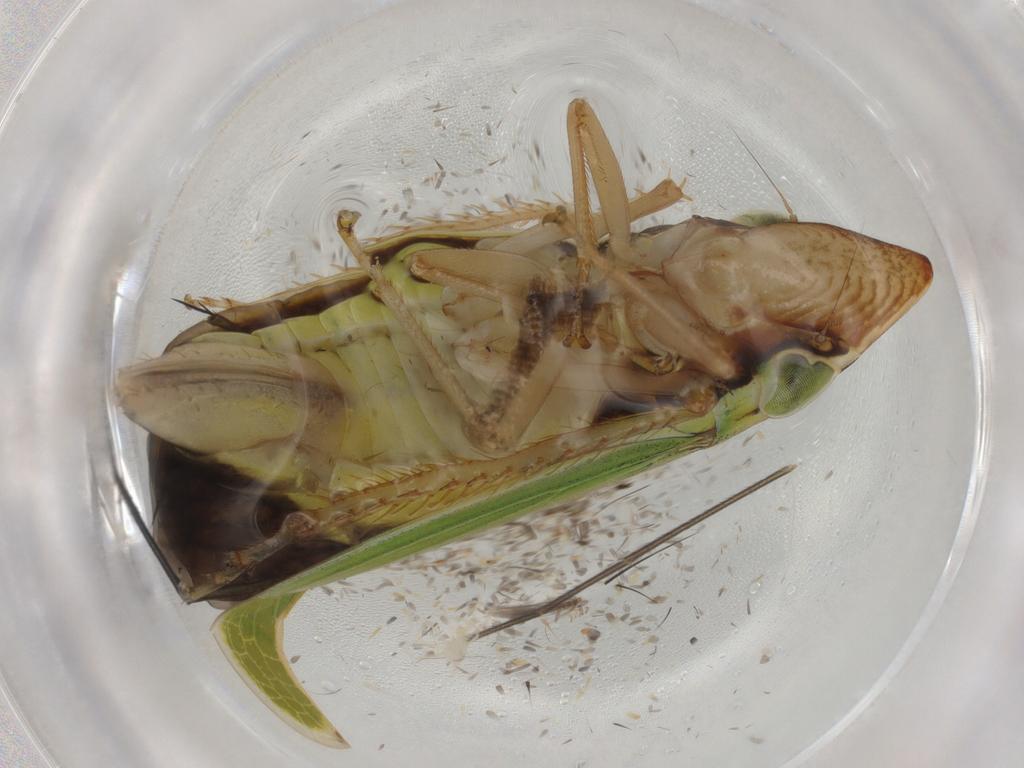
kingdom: Animalia
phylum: Arthropoda
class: Insecta
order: Hemiptera
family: Cicadellidae
